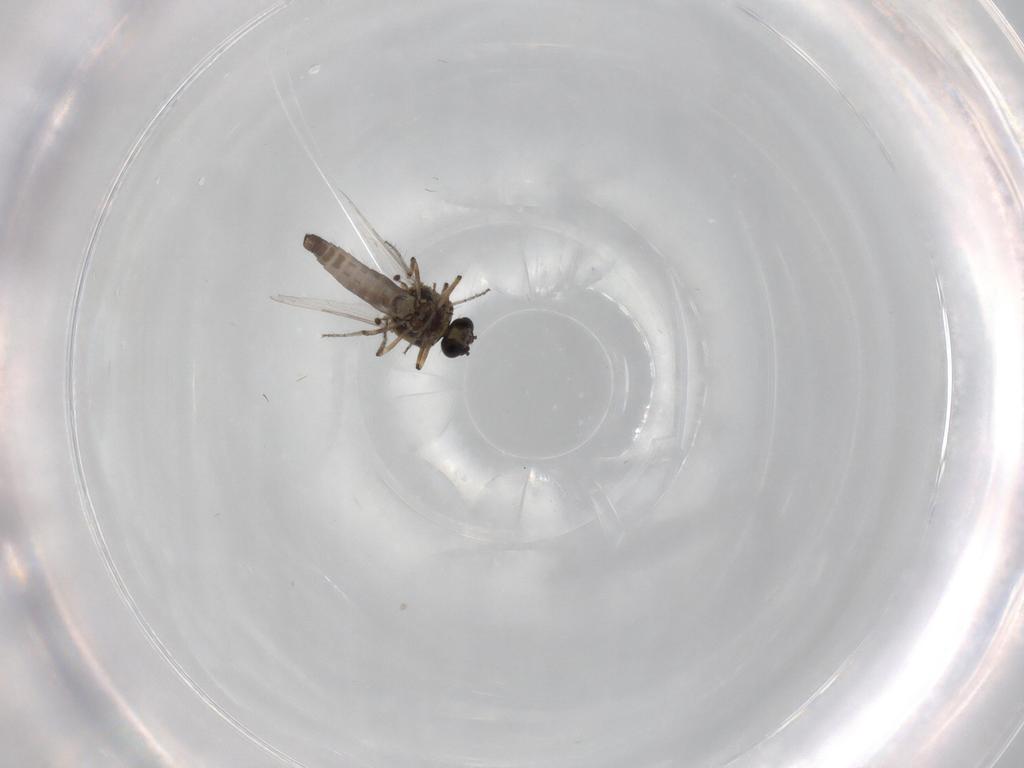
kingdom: Animalia
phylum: Arthropoda
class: Insecta
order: Diptera
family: Ceratopogonidae
